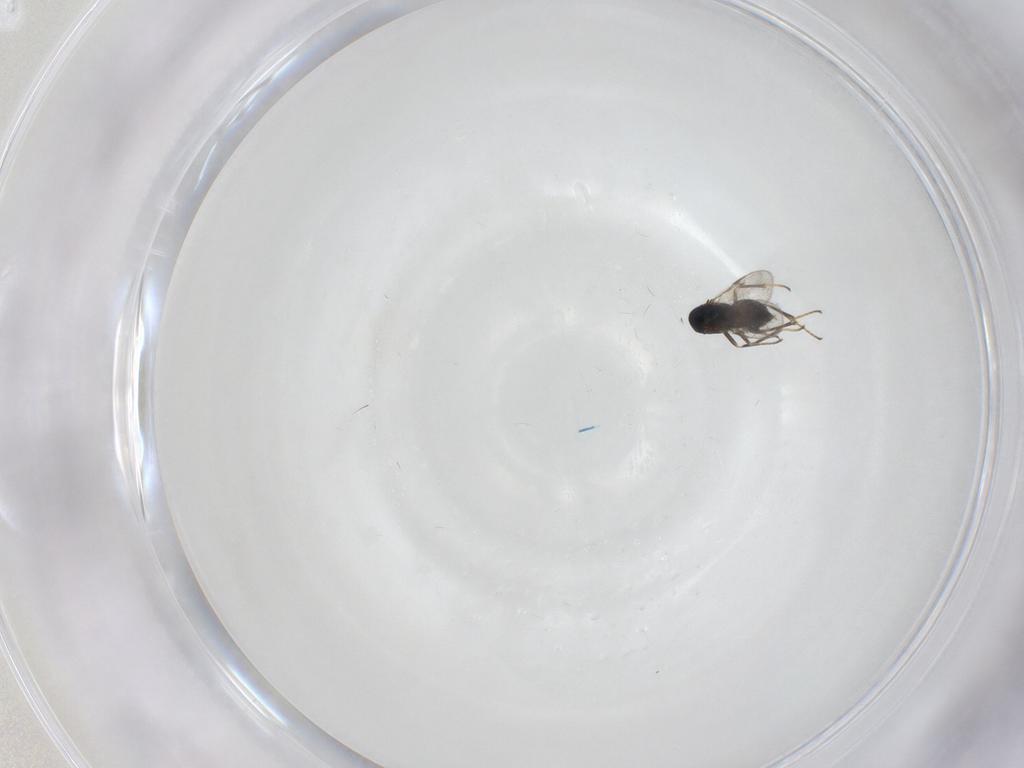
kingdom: Animalia
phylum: Arthropoda
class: Insecta
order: Hymenoptera
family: Encyrtidae
